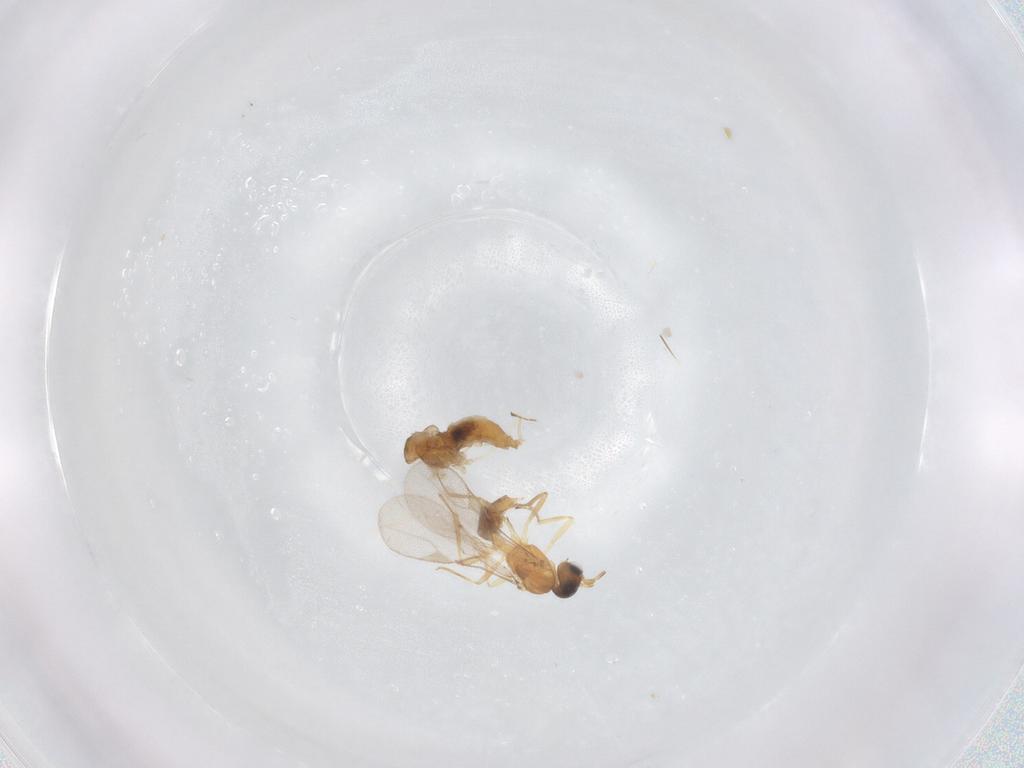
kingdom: Animalia
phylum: Arthropoda
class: Insecta
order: Hymenoptera
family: Braconidae
